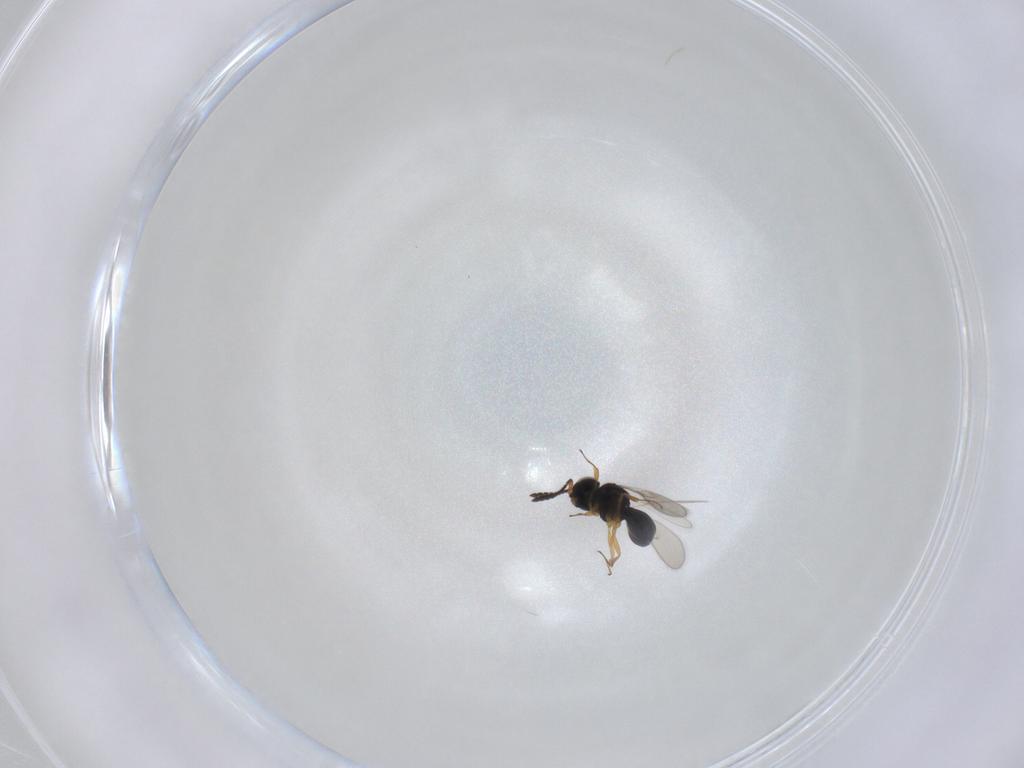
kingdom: Animalia
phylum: Arthropoda
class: Insecta
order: Hymenoptera
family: Scelionidae
